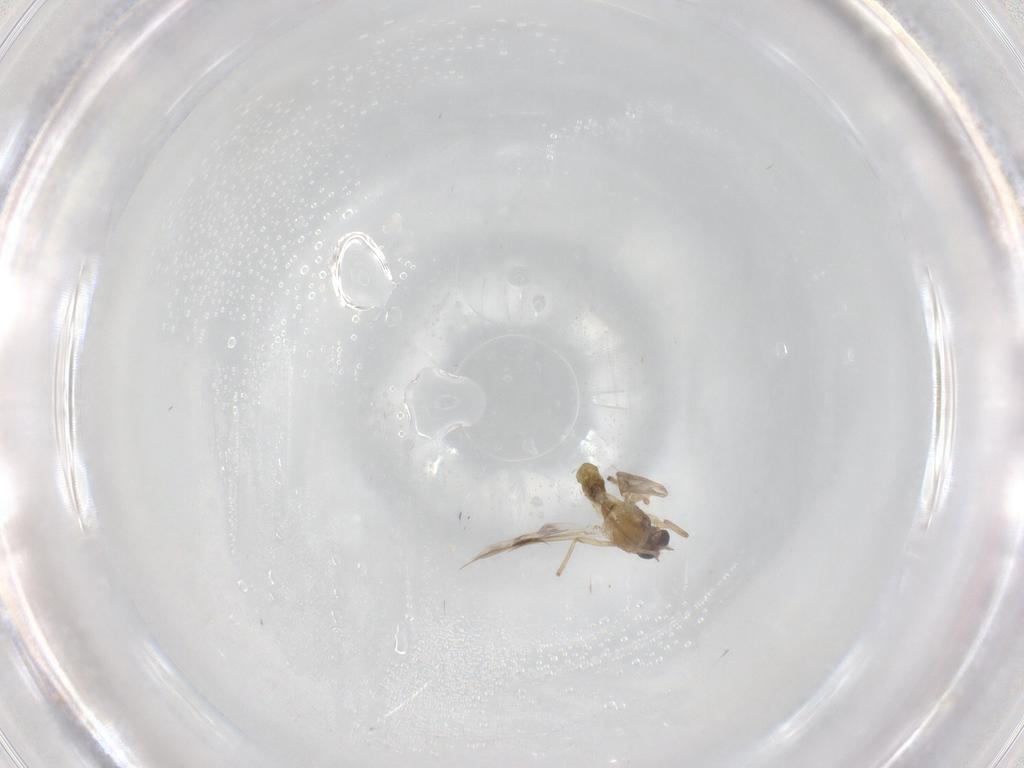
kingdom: Animalia
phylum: Arthropoda
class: Insecta
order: Diptera
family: Chironomidae
